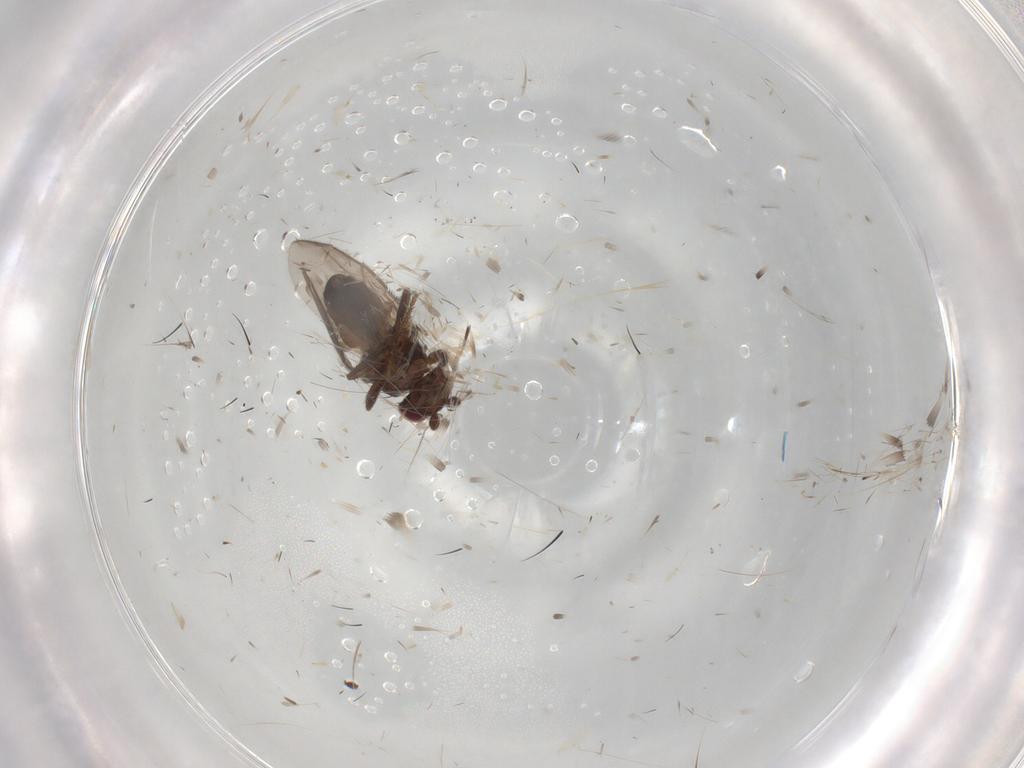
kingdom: Animalia
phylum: Arthropoda
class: Insecta
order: Diptera
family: Sphaeroceridae
